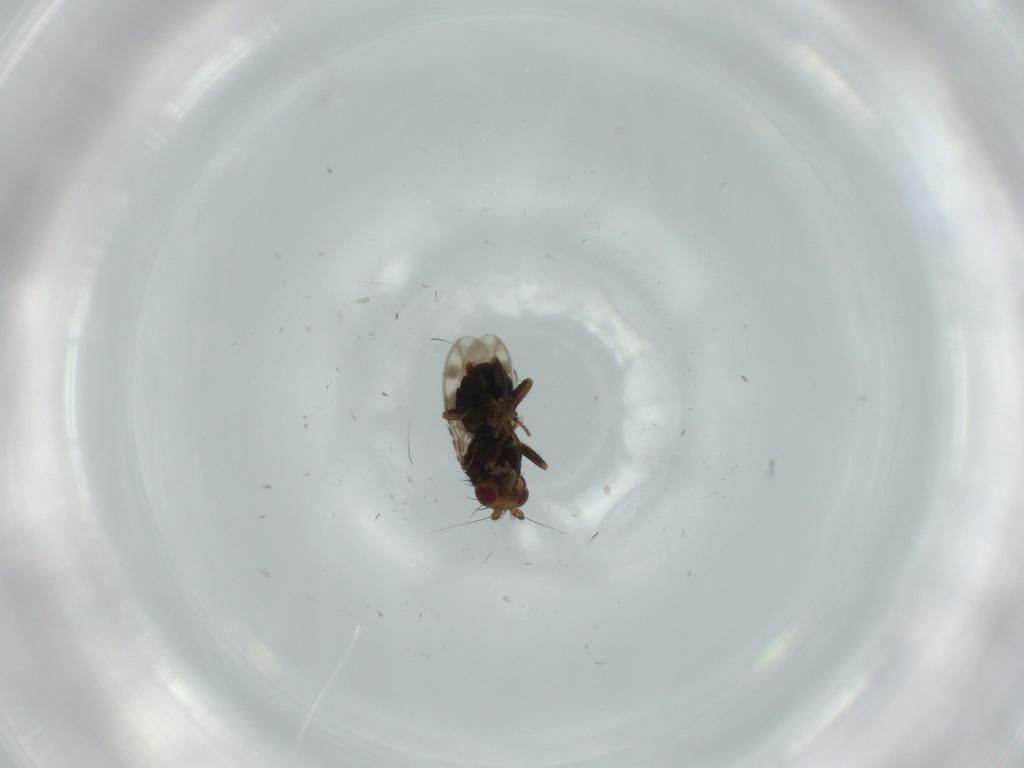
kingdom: Animalia
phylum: Arthropoda
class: Insecta
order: Diptera
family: Sphaeroceridae
